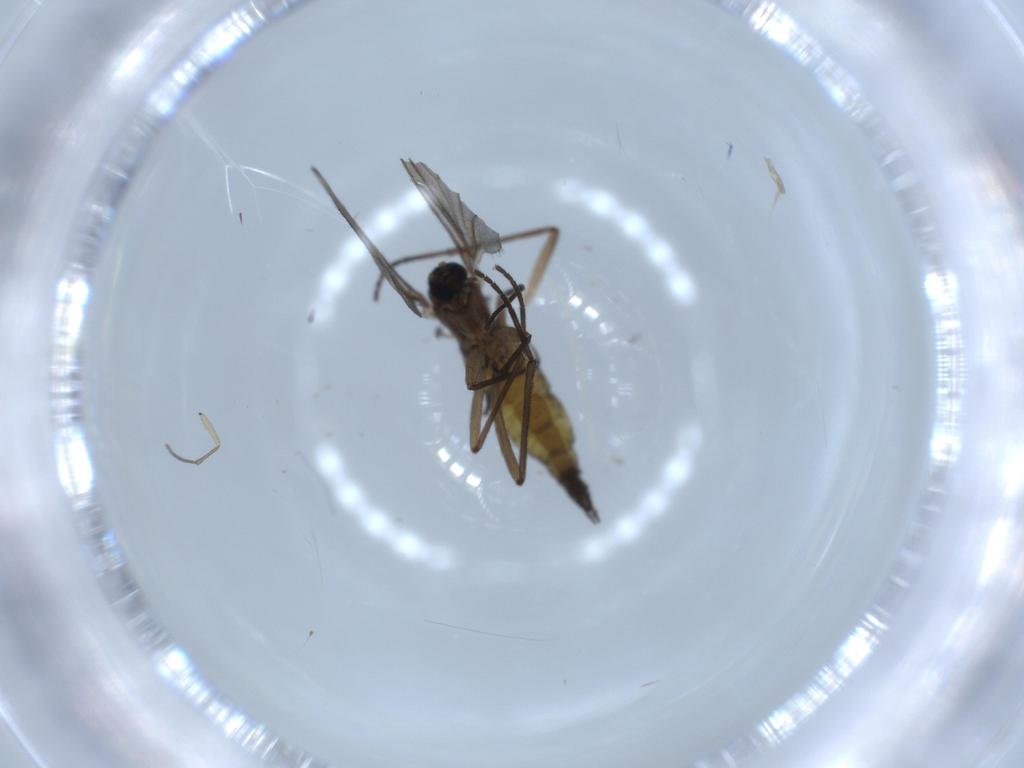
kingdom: Animalia
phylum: Arthropoda
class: Insecta
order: Diptera
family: Sciaridae
